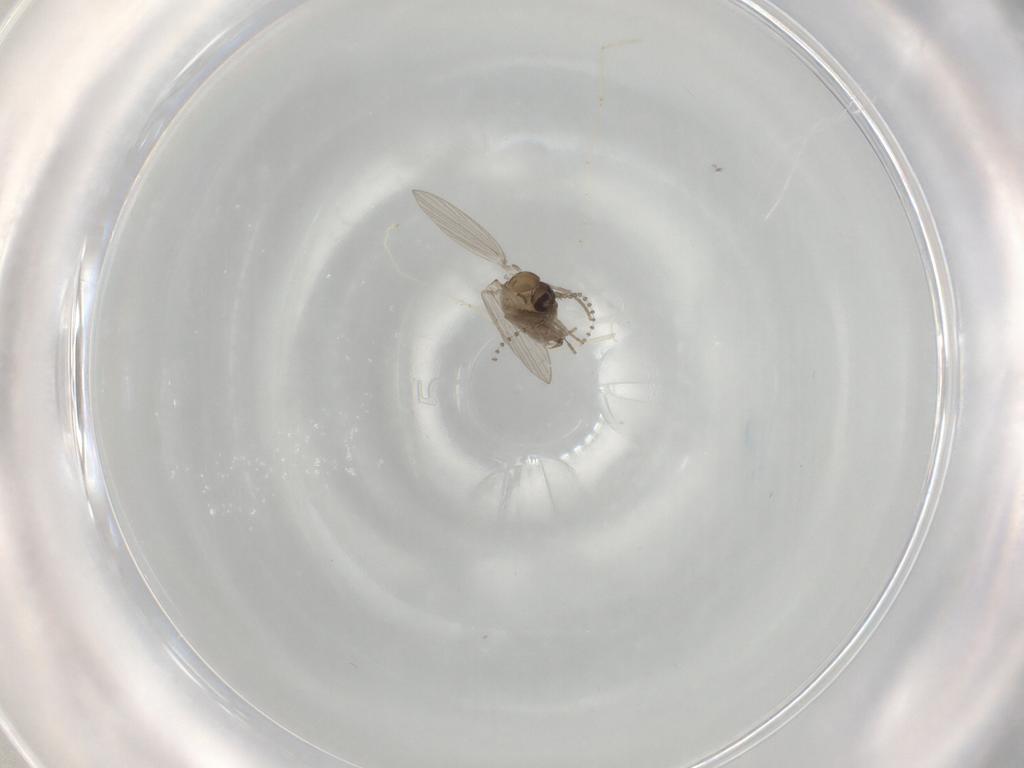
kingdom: Animalia
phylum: Arthropoda
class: Insecta
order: Diptera
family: Psychodidae
